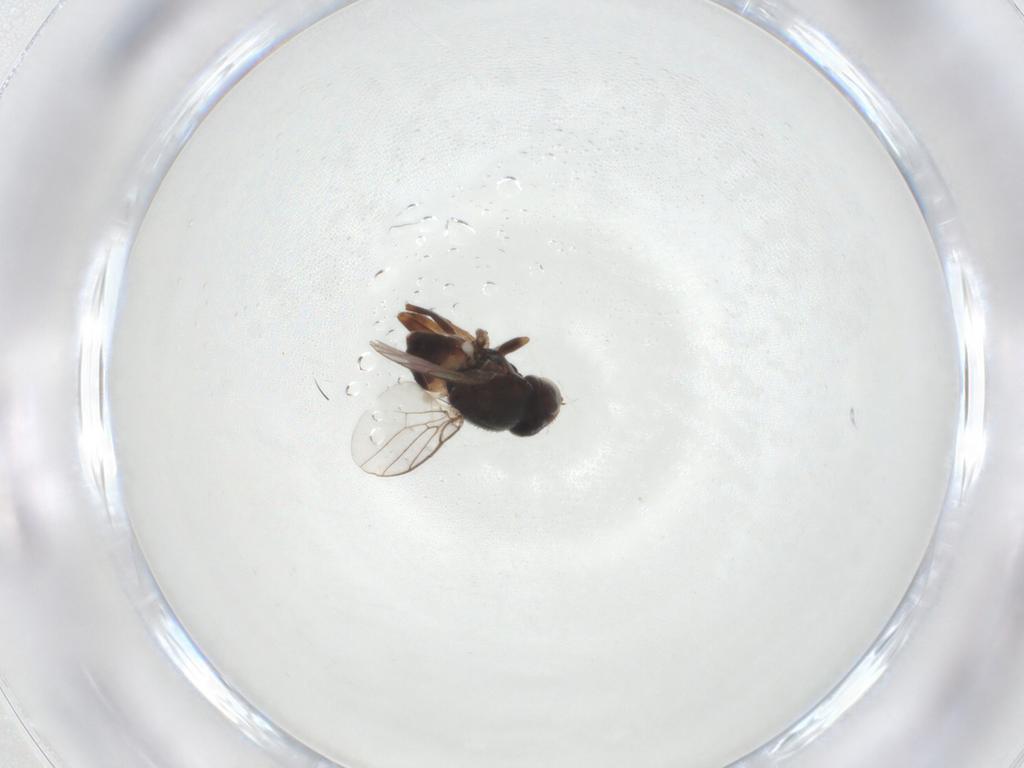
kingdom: Animalia
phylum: Arthropoda
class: Insecta
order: Diptera
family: Chloropidae
